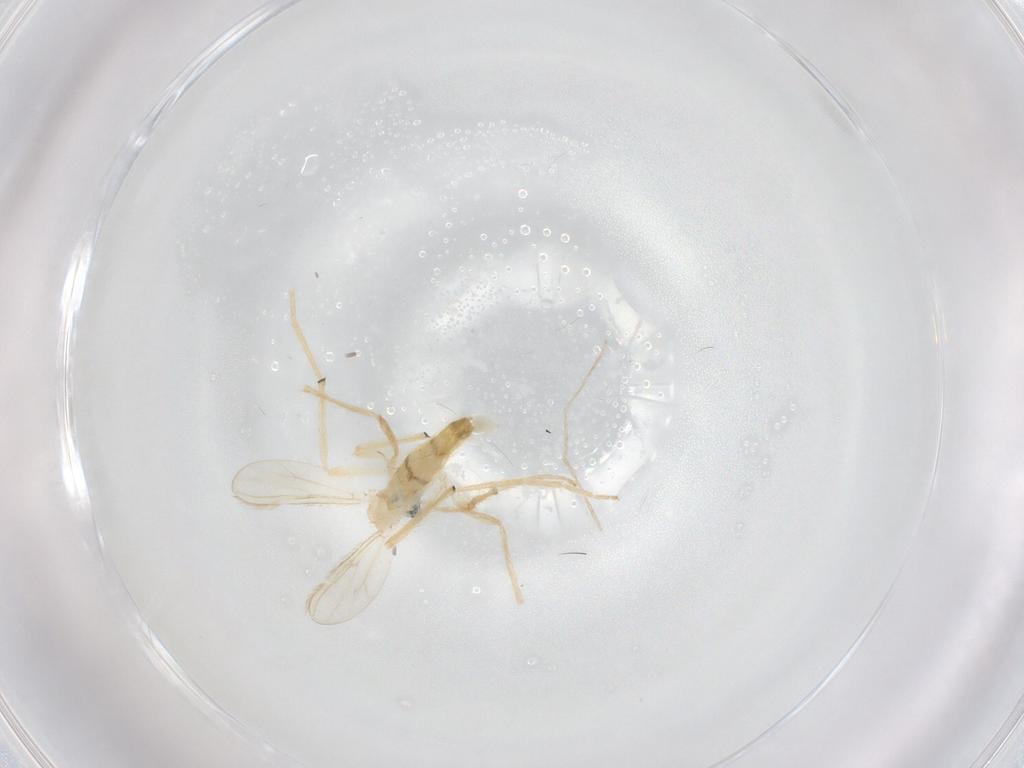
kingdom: Animalia
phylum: Arthropoda
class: Insecta
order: Diptera
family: Chironomidae
